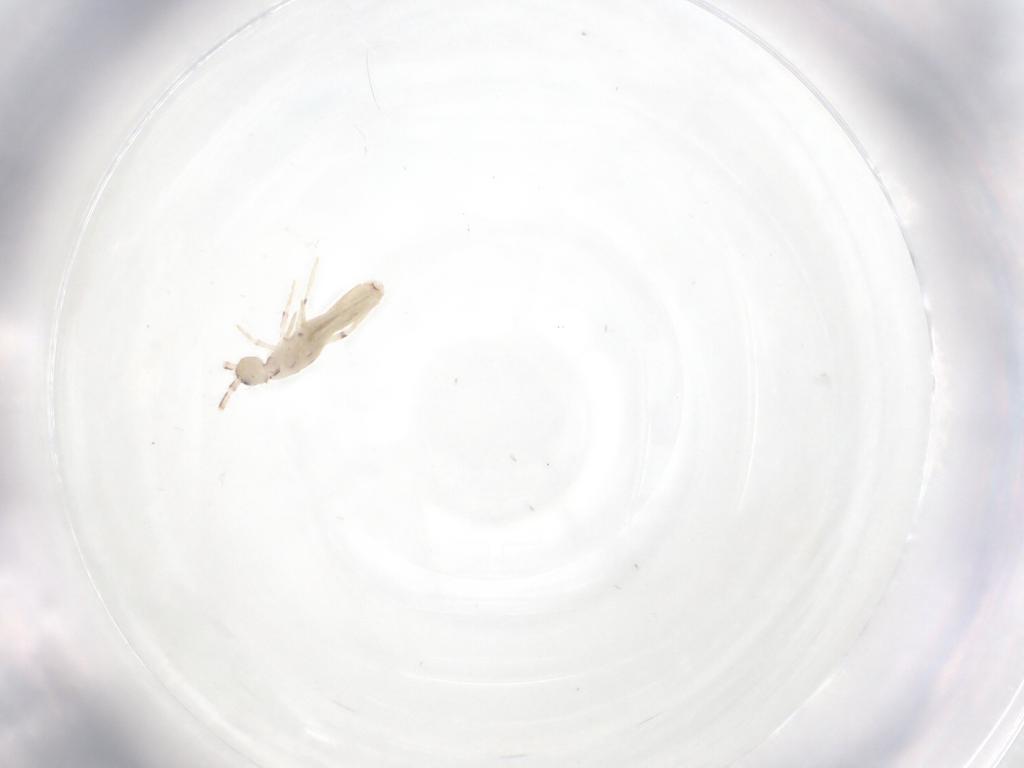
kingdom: Animalia
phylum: Arthropoda
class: Collembola
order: Entomobryomorpha
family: Entomobryidae
